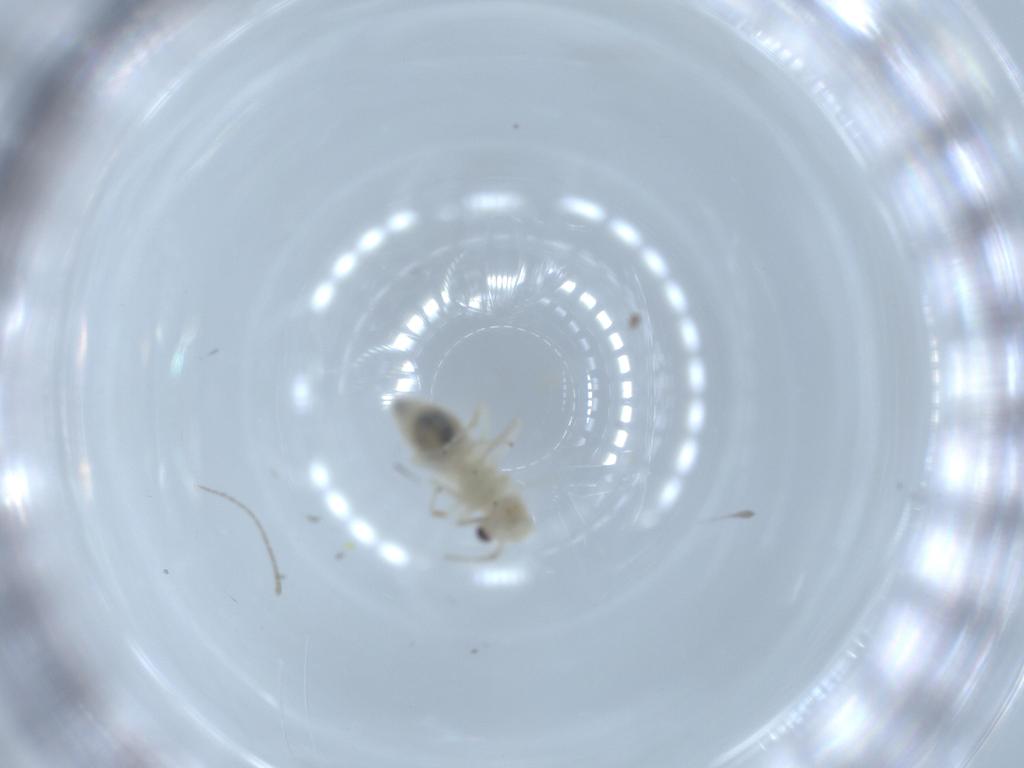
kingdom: Animalia
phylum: Arthropoda
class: Insecta
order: Psocodea
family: Caeciliusidae
